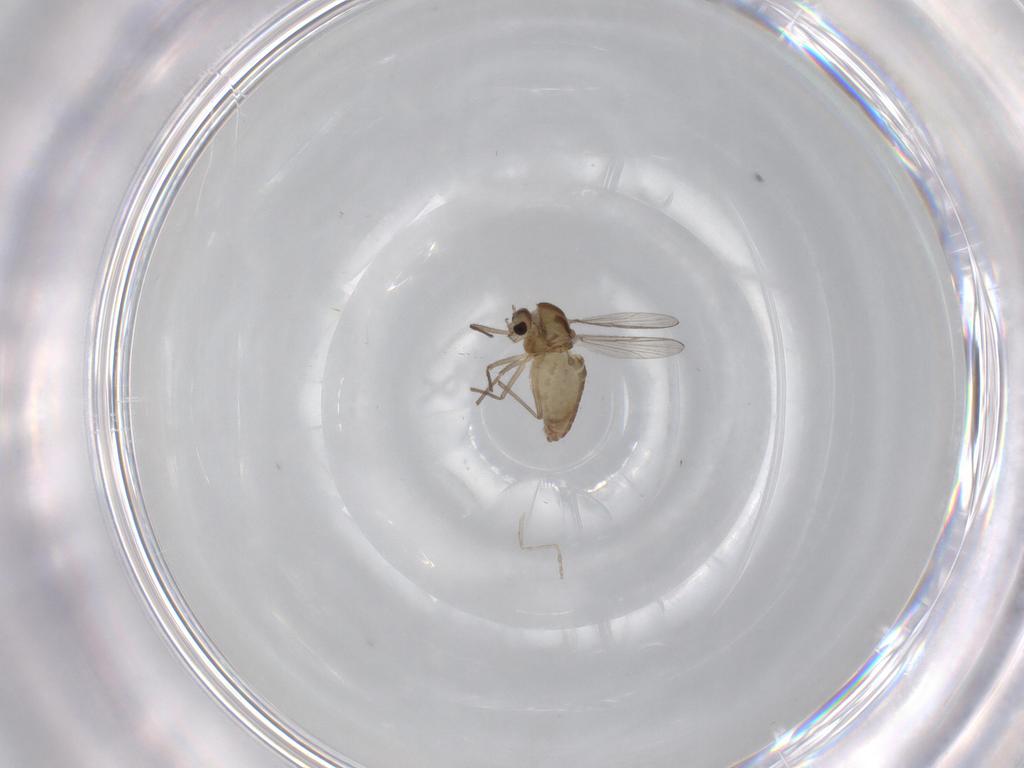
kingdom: Animalia
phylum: Arthropoda
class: Insecta
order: Diptera
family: Chironomidae
